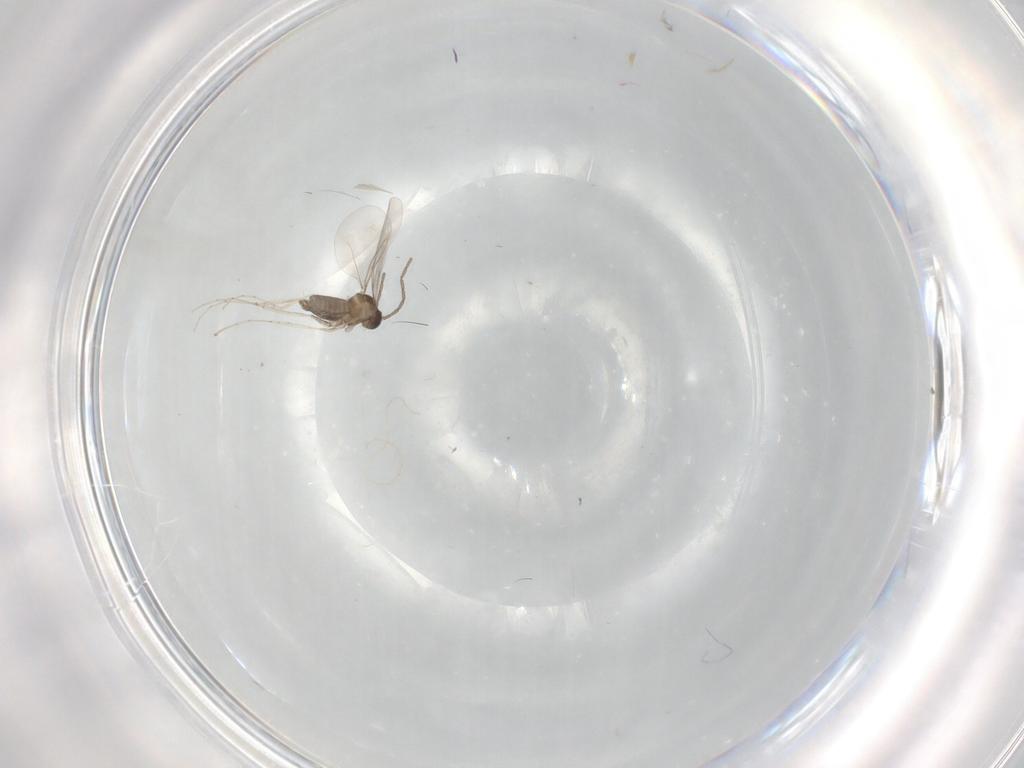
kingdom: Animalia
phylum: Arthropoda
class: Insecta
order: Diptera
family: Cecidomyiidae
